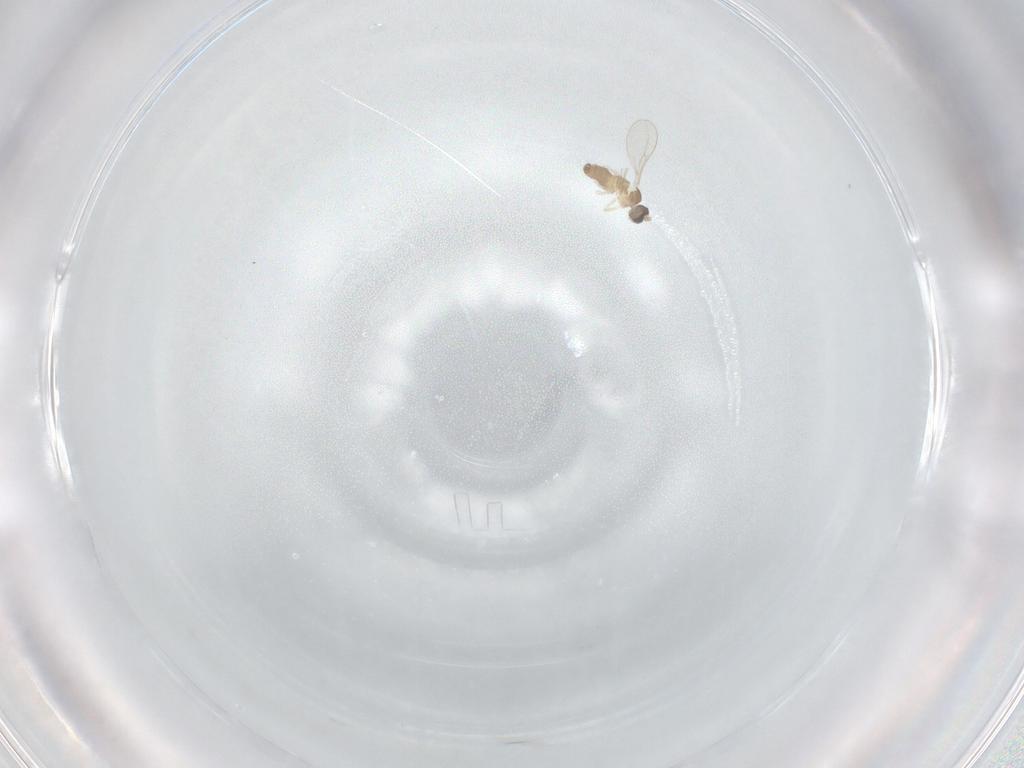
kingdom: Animalia
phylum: Arthropoda
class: Insecta
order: Diptera
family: Cecidomyiidae
